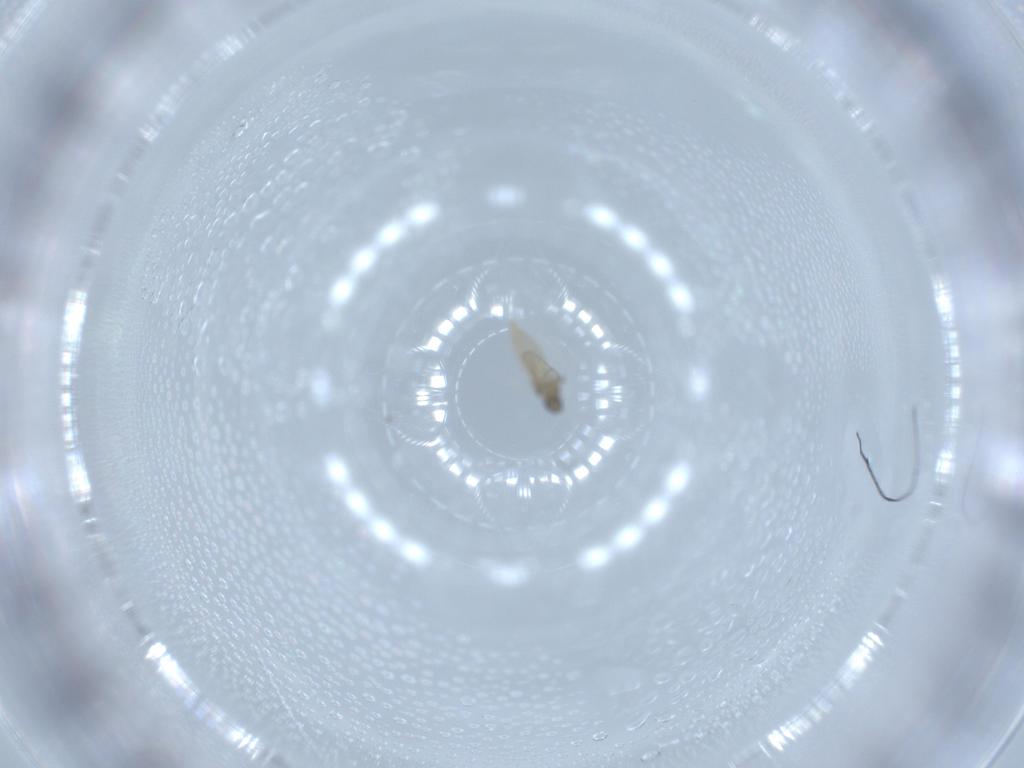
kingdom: Animalia
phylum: Arthropoda
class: Insecta
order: Diptera
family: Cecidomyiidae
